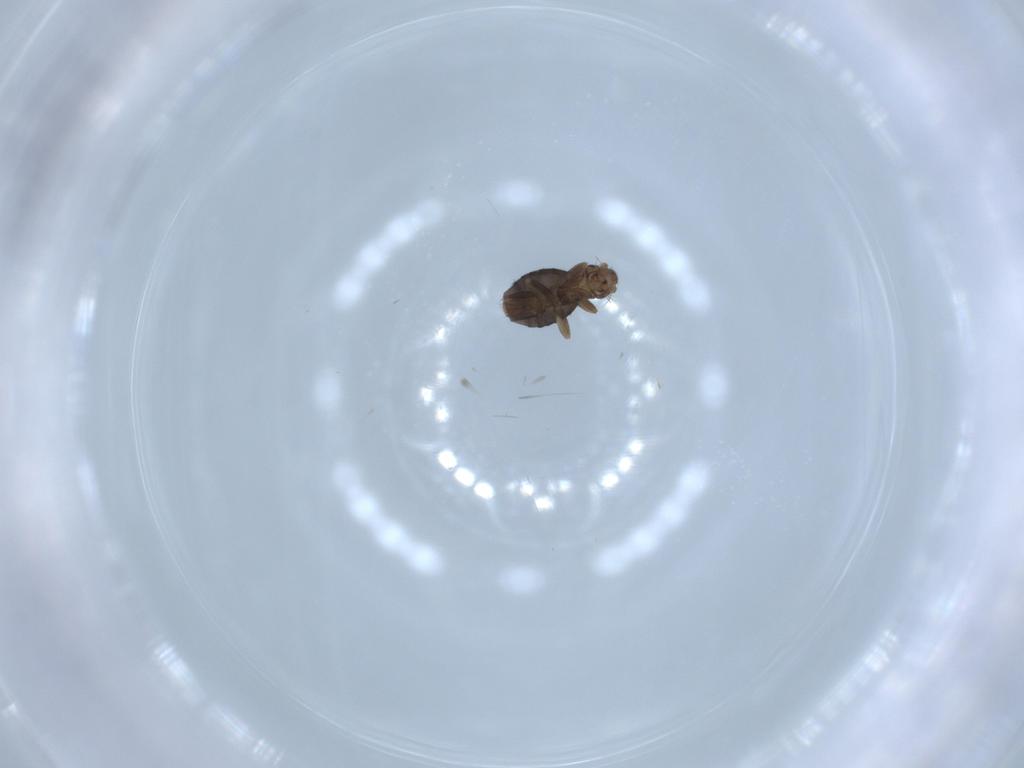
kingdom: Animalia
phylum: Arthropoda
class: Insecta
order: Diptera
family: Phoridae
